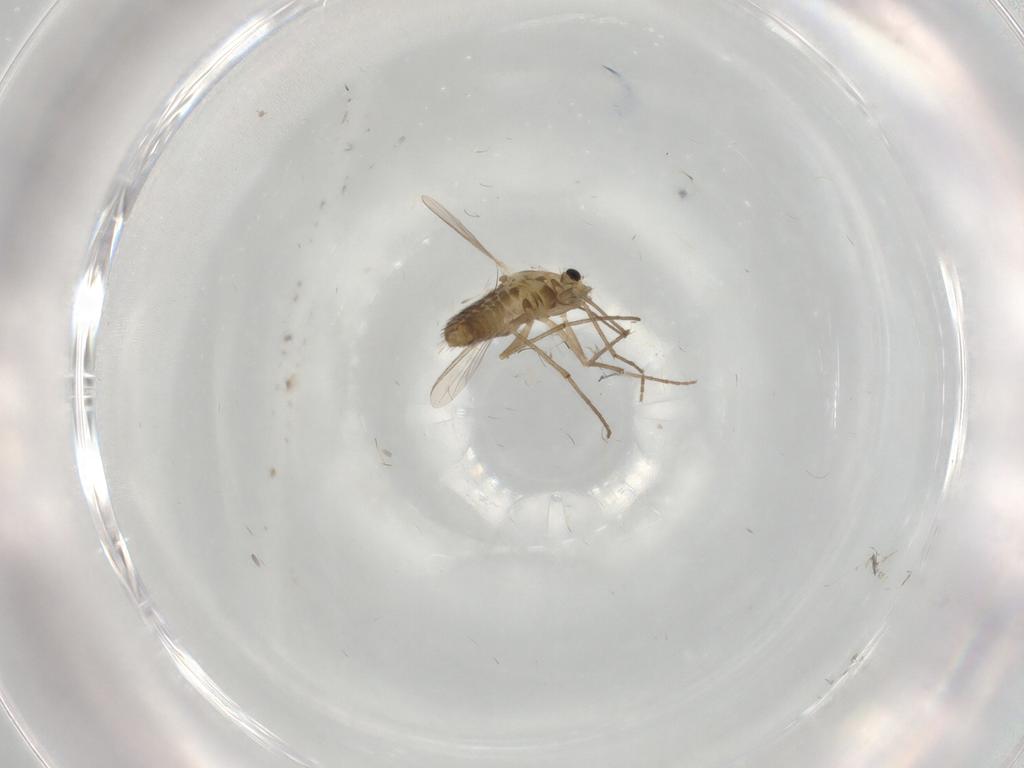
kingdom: Animalia
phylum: Arthropoda
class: Insecta
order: Diptera
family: Chironomidae
